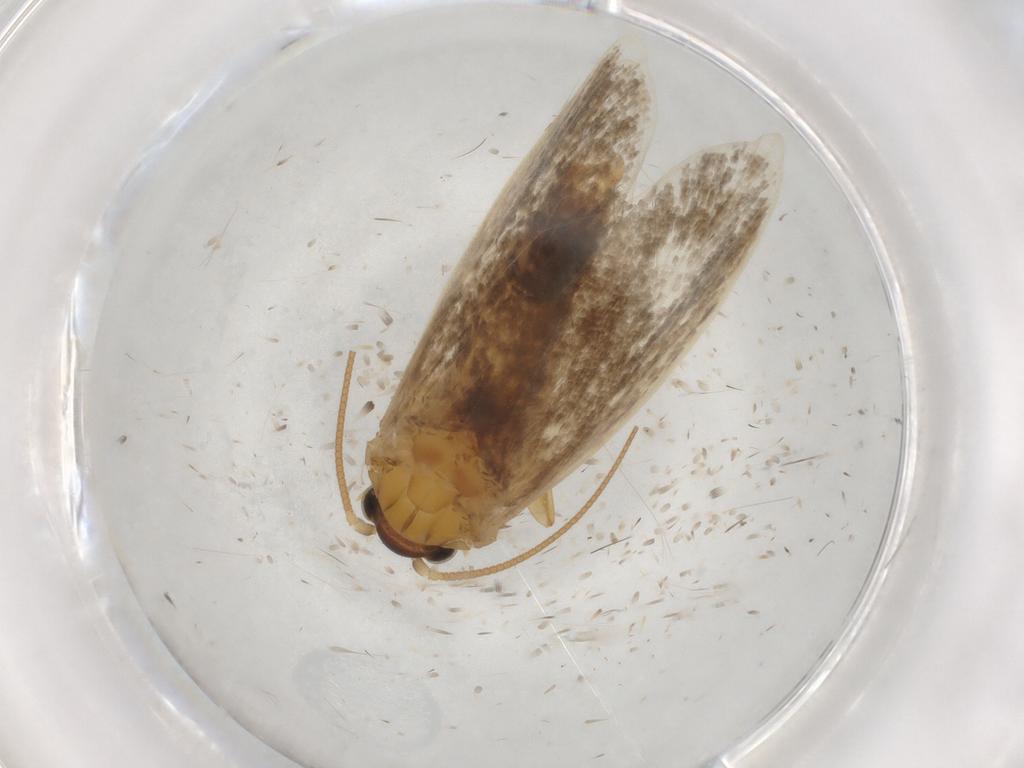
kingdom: Animalia
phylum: Arthropoda
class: Insecta
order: Lepidoptera
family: Nepticulidae
